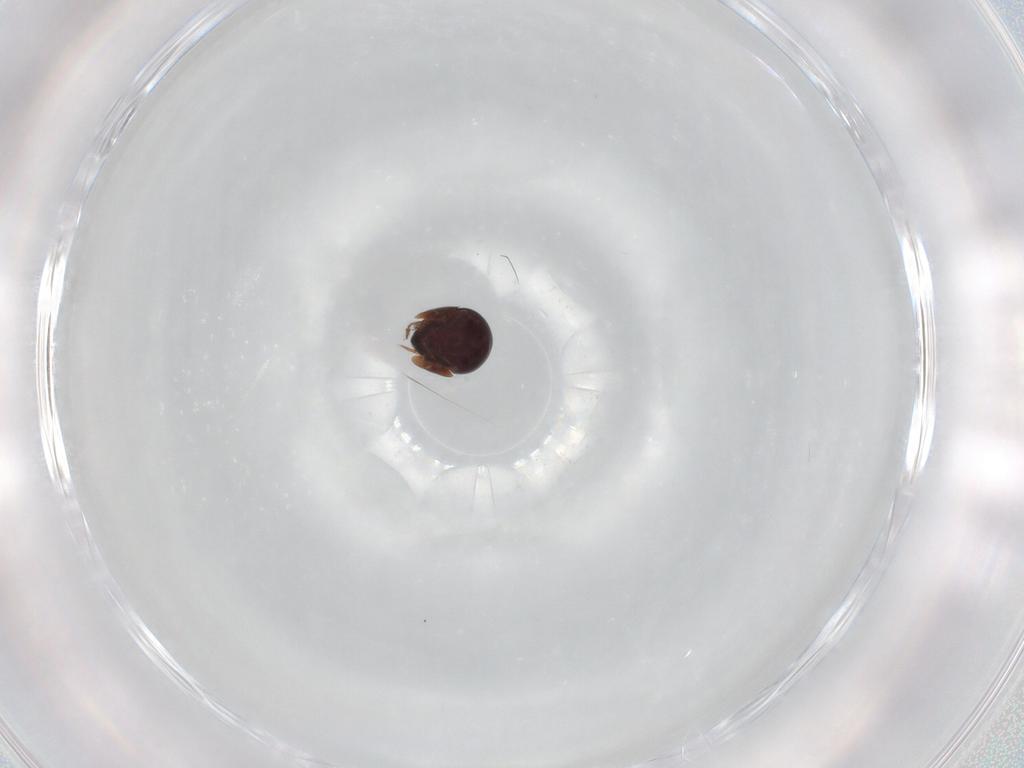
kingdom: Animalia
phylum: Arthropoda
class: Arachnida
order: Sarcoptiformes
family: Galumnidae
